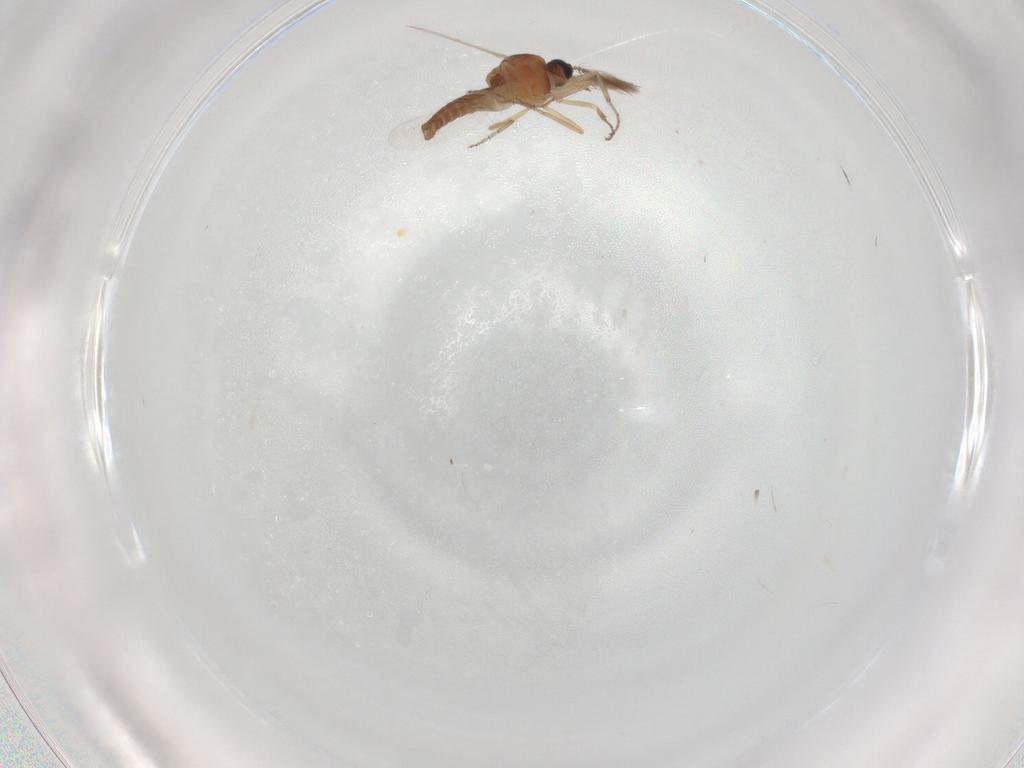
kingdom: Animalia
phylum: Arthropoda
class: Insecta
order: Diptera
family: Ceratopogonidae
